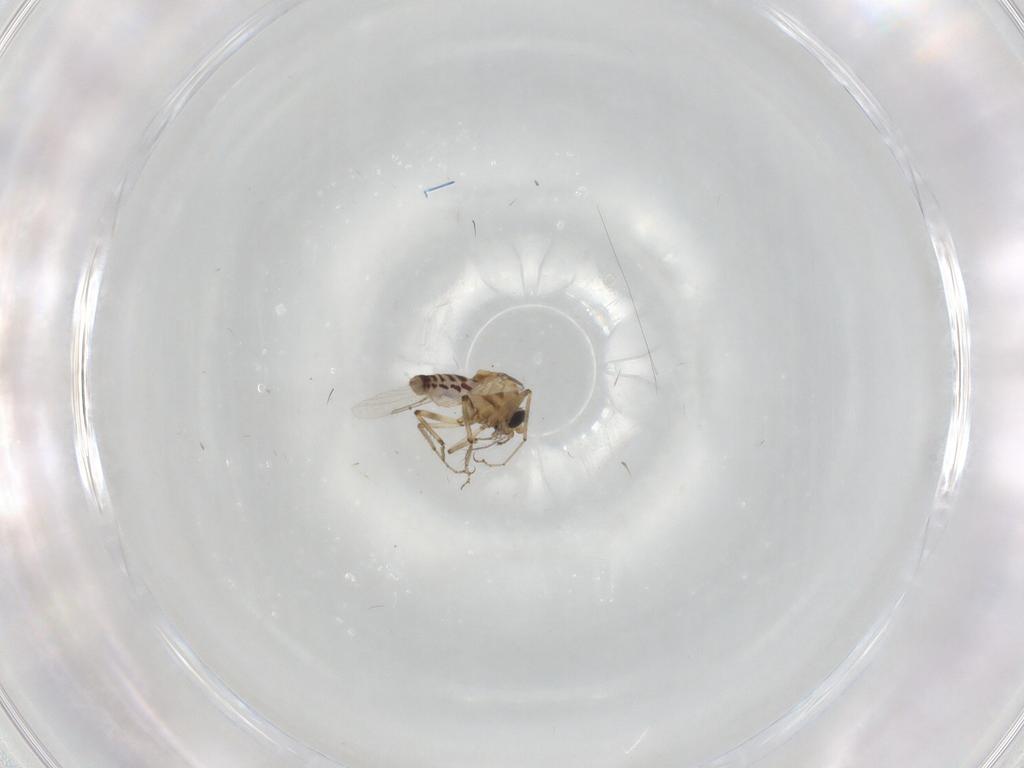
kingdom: Animalia
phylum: Arthropoda
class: Insecta
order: Diptera
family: Ceratopogonidae
